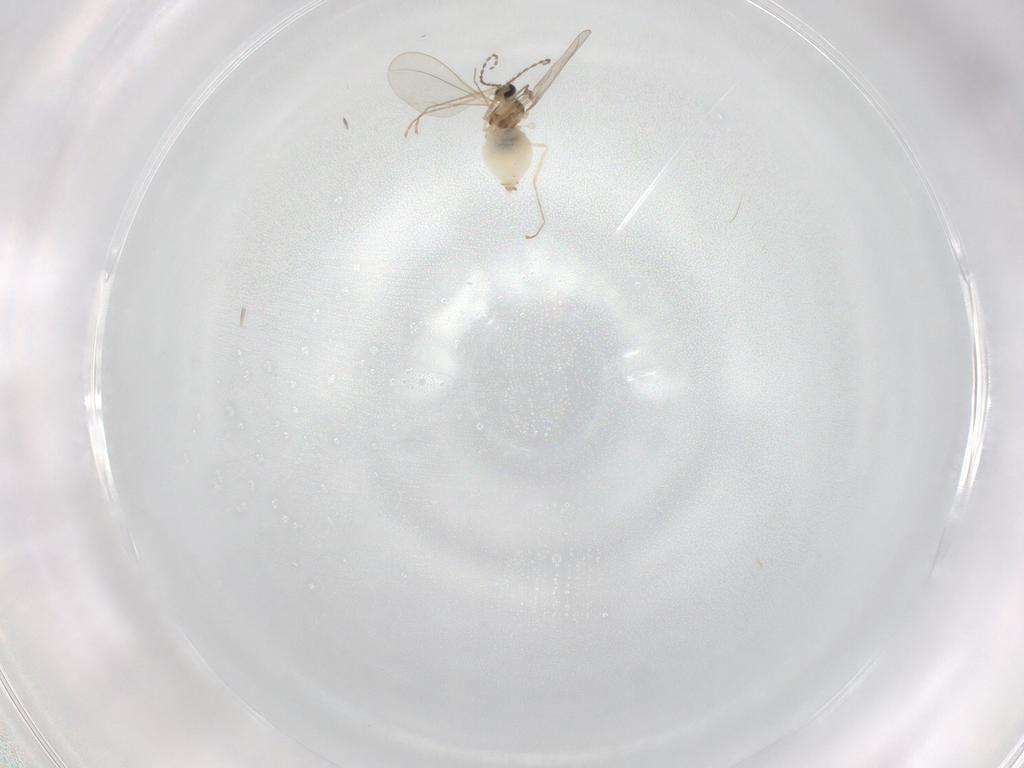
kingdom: Animalia
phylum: Arthropoda
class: Insecta
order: Diptera
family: Cecidomyiidae
